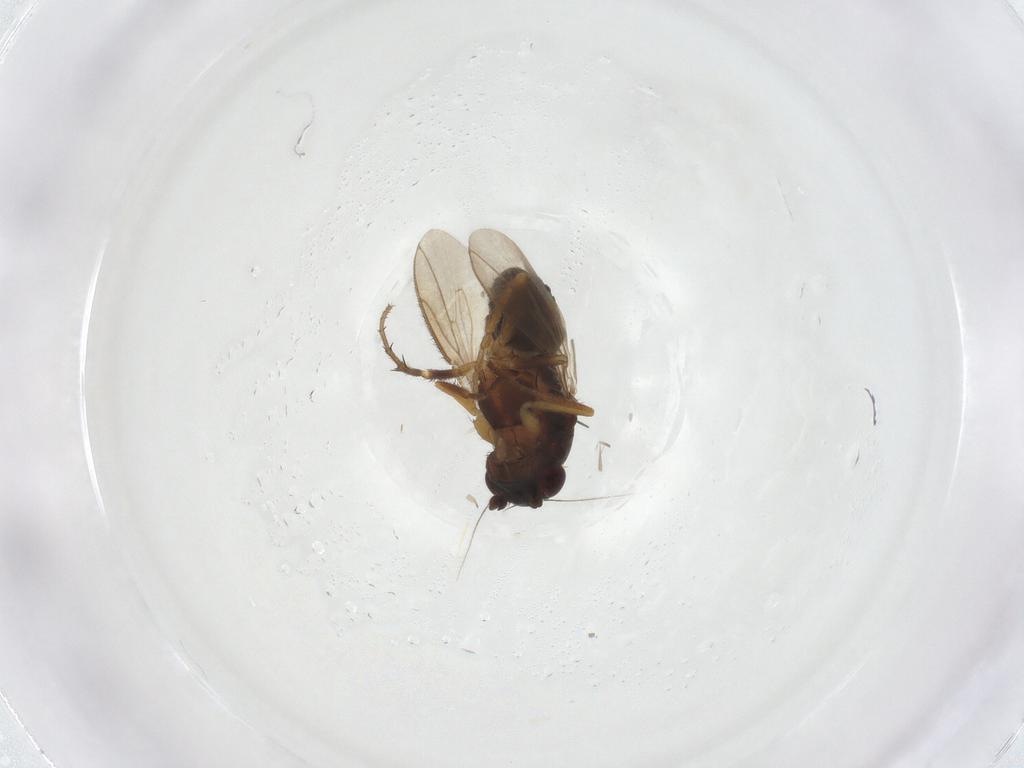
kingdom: Animalia
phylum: Arthropoda
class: Insecta
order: Diptera
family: Sphaeroceridae
